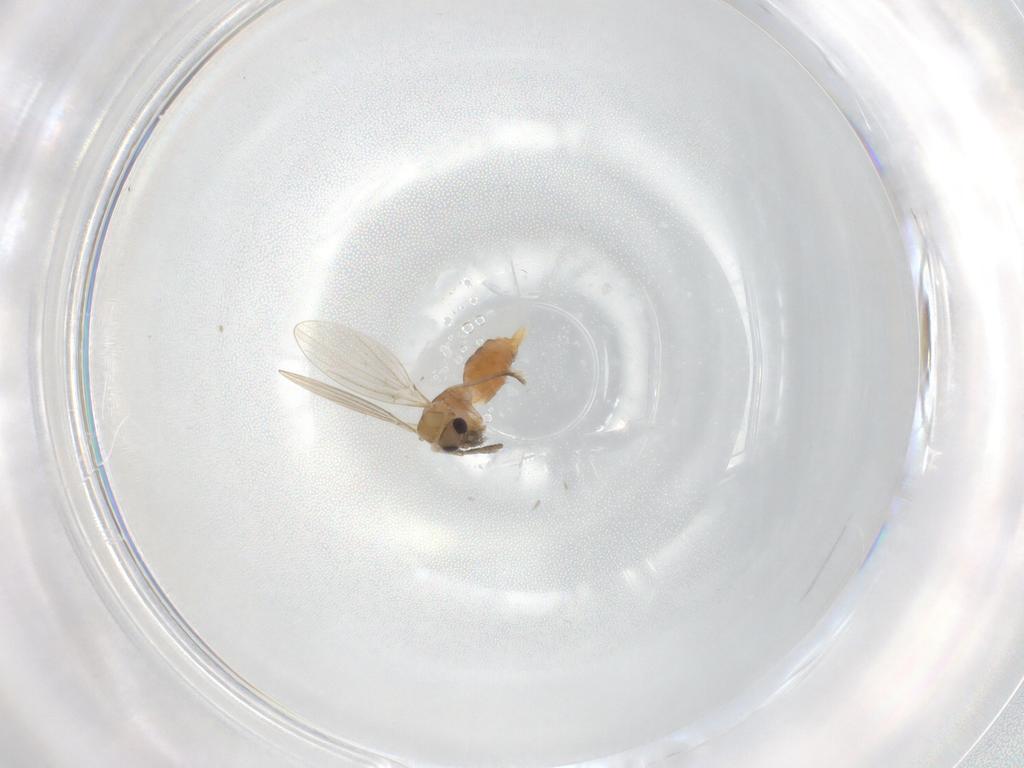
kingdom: Animalia
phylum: Arthropoda
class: Insecta
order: Diptera
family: Psychodidae
